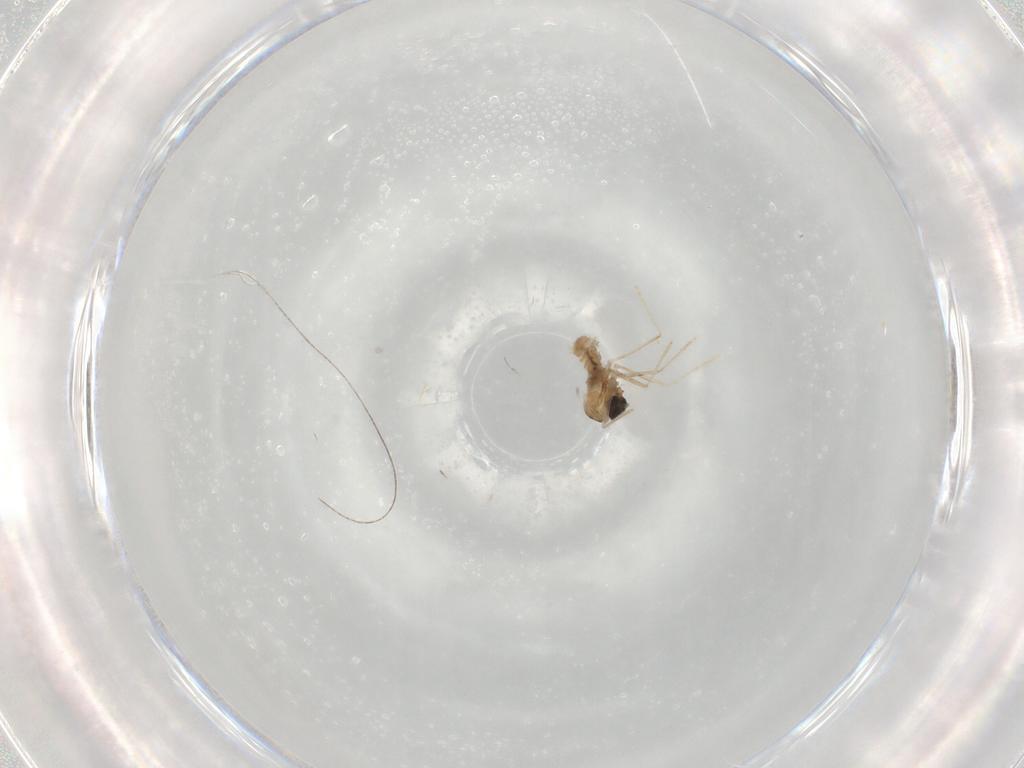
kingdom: Animalia
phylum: Arthropoda
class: Insecta
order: Diptera
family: Cecidomyiidae
